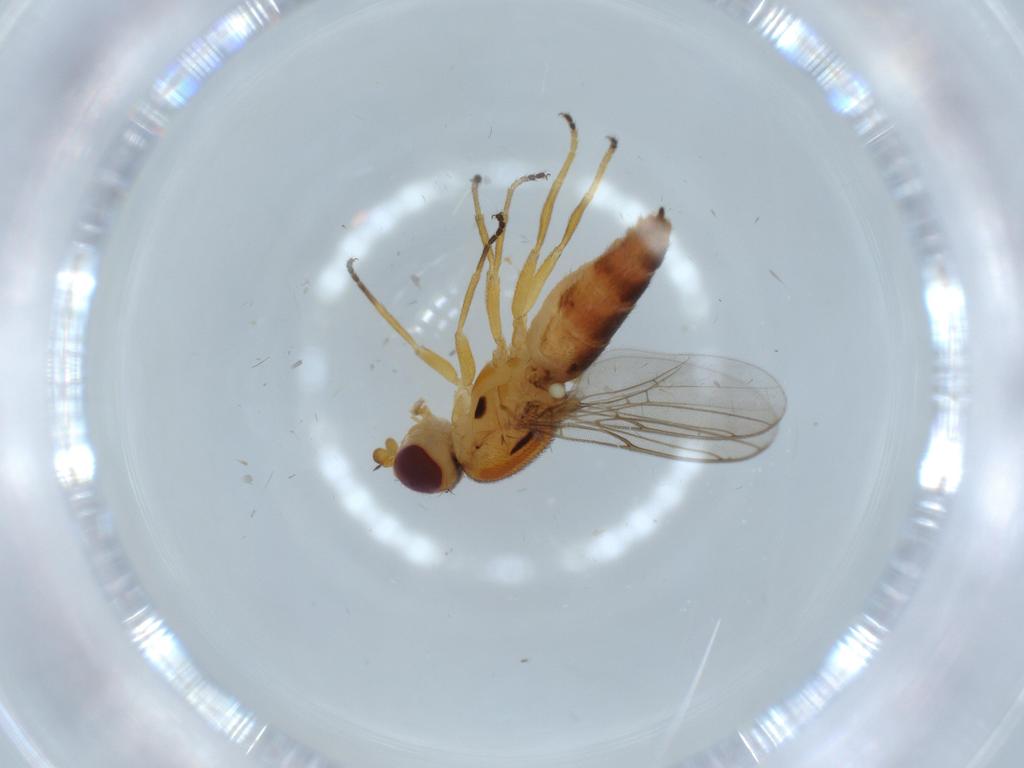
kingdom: Animalia
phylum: Arthropoda
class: Insecta
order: Diptera
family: Chloropidae
